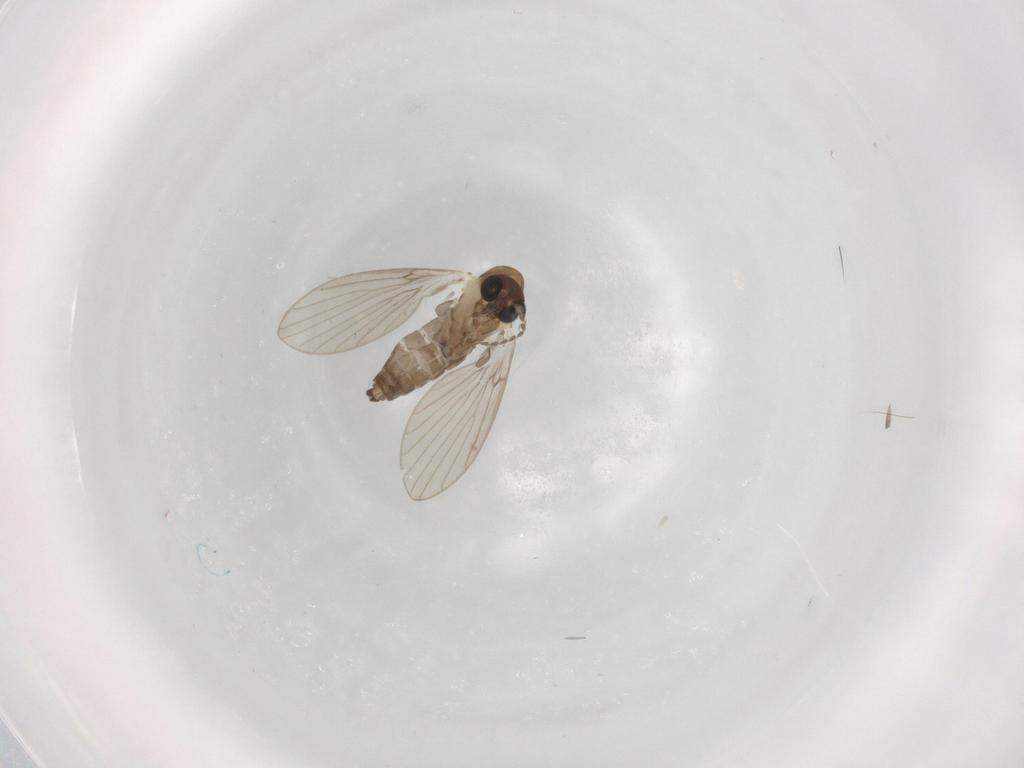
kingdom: Animalia
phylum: Arthropoda
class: Insecta
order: Diptera
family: Psychodidae
